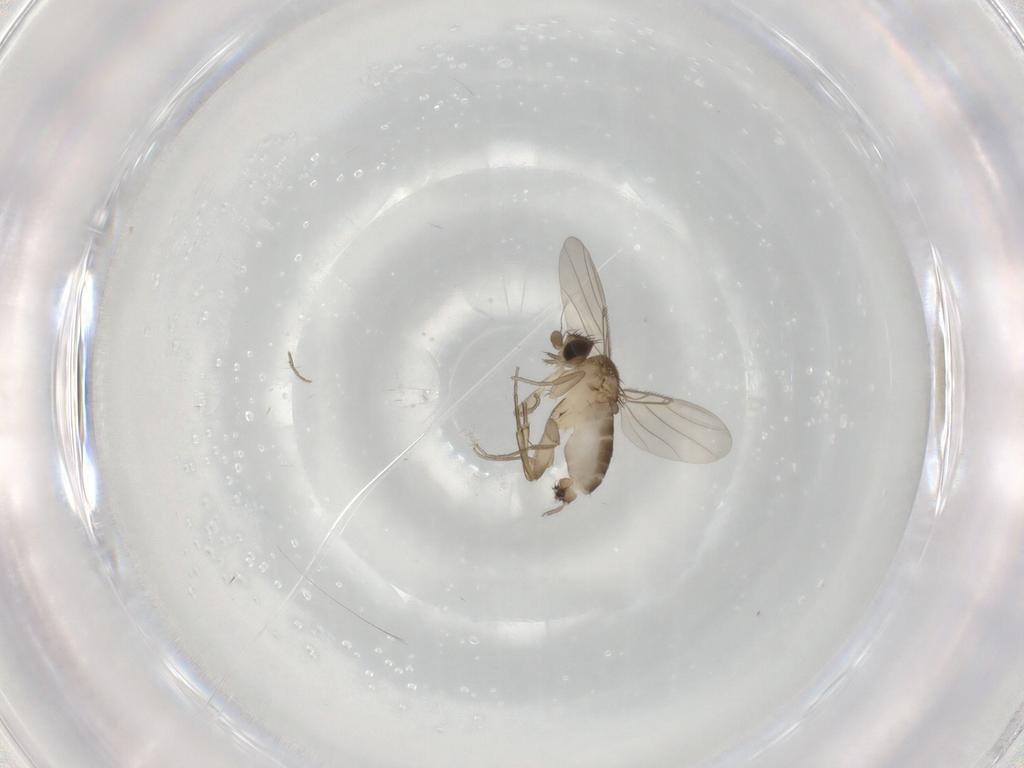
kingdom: Animalia
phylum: Arthropoda
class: Insecta
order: Diptera
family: Phoridae
